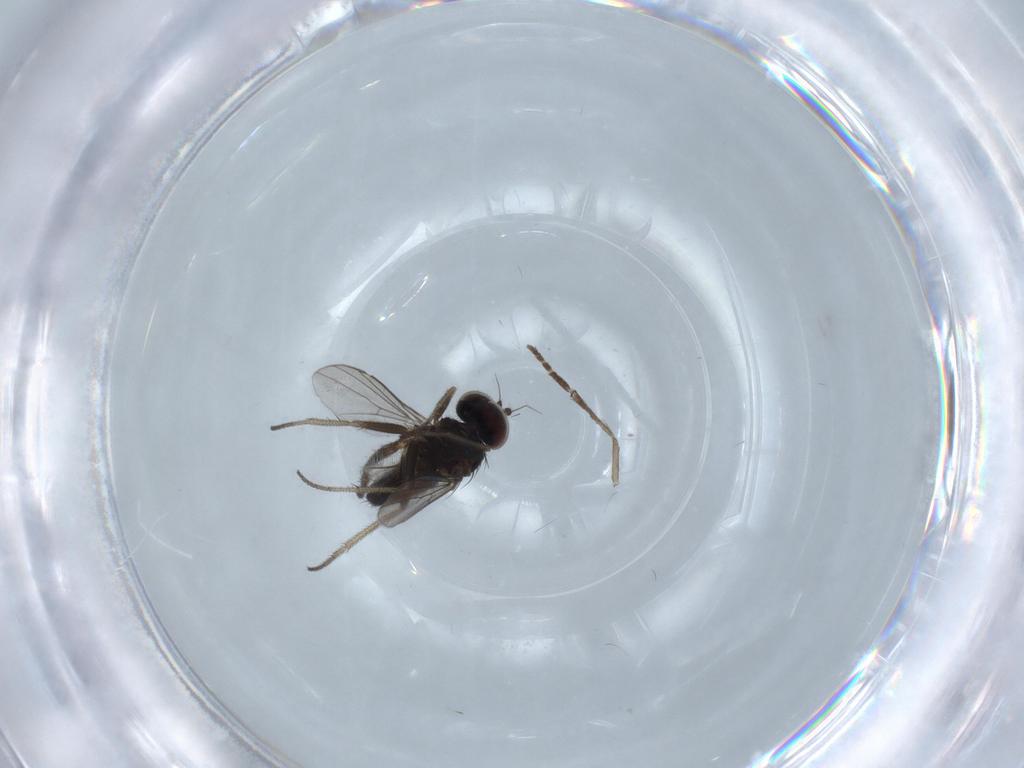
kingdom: Animalia
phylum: Arthropoda
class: Insecta
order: Diptera
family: Dolichopodidae
